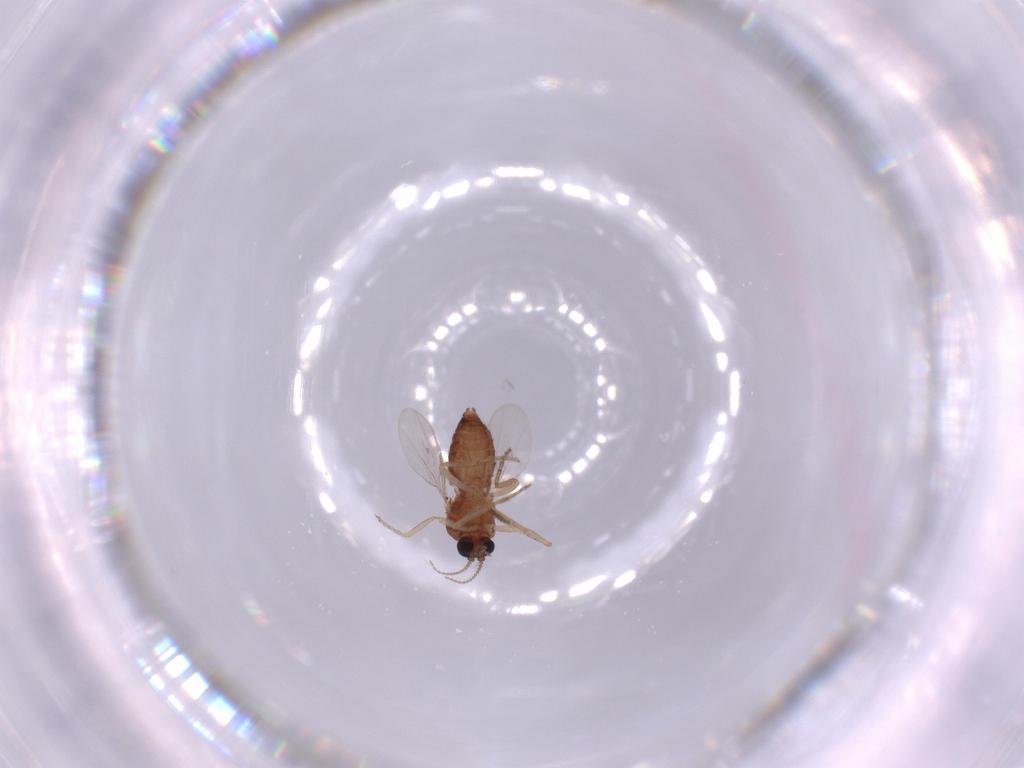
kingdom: Animalia
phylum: Arthropoda
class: Insecta
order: Diptera
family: Ceratopogonidae
